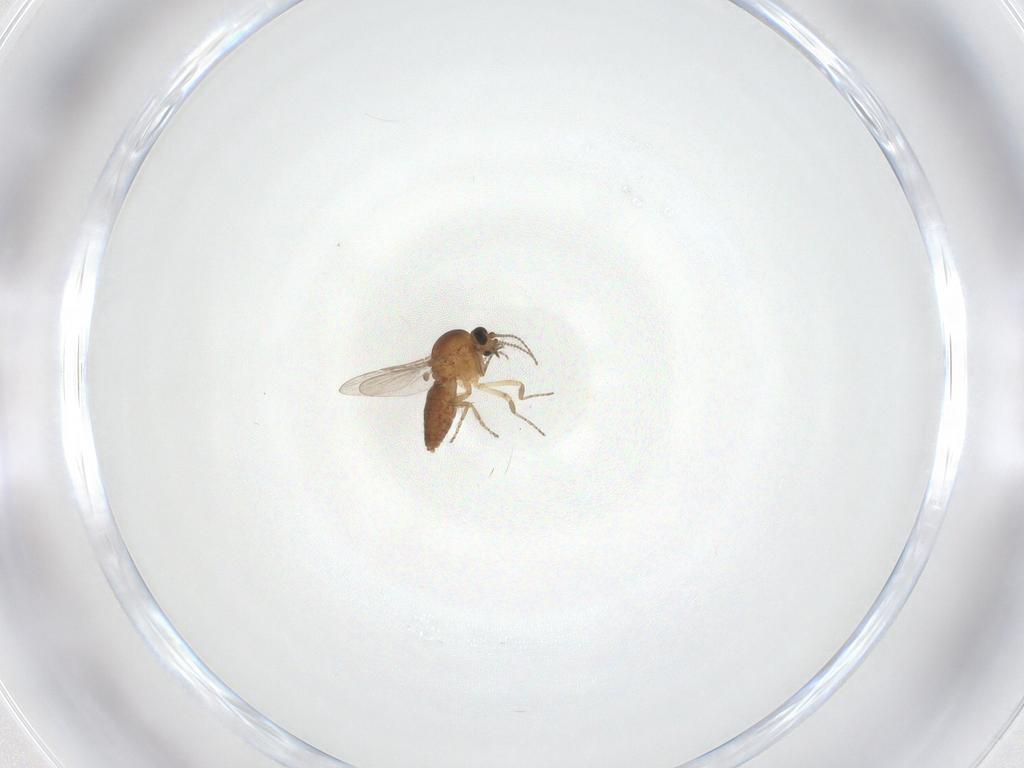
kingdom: Animalia
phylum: Arthropoda
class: Insecta
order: Diptera
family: Ceratopogonidae
